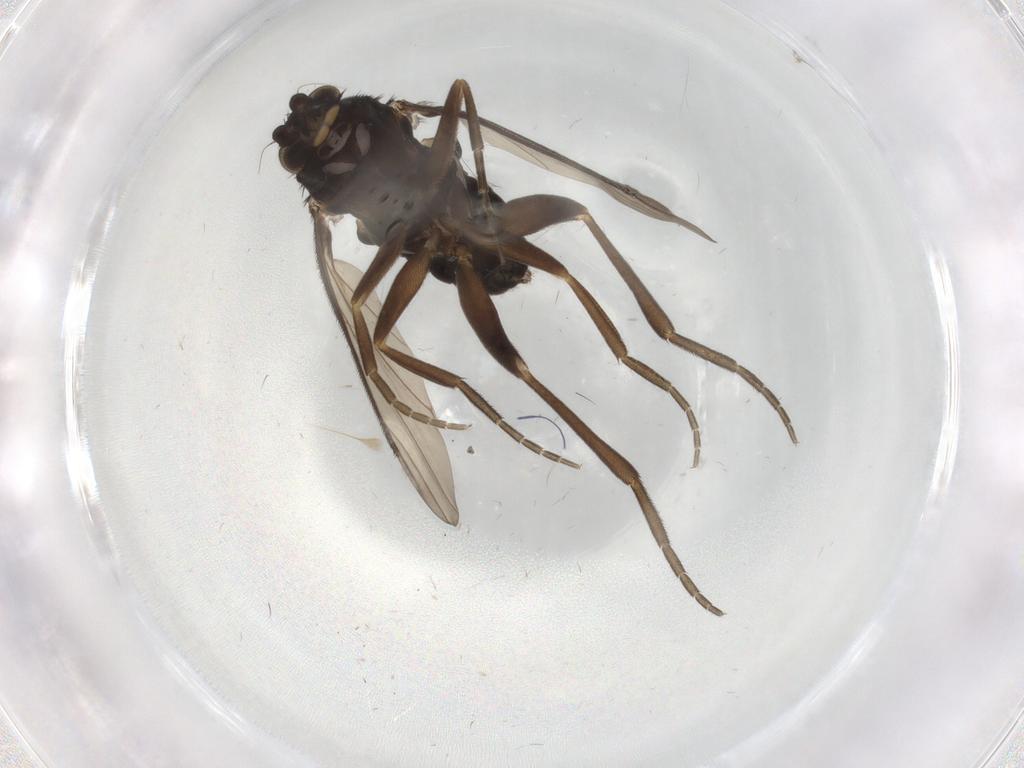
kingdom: Animalia
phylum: Arthropoda
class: Insecta
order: Diptera
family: Phoridae
